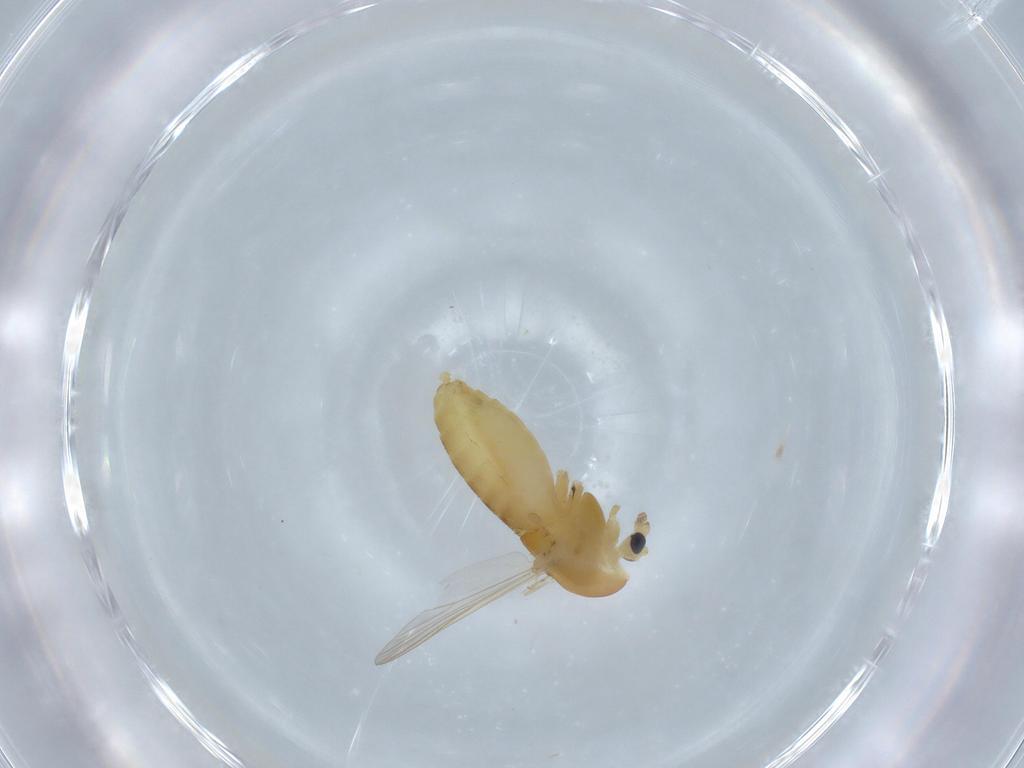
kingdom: Animalia
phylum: Arthropoda
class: Insecta
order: Diptera
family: Chironomidae
